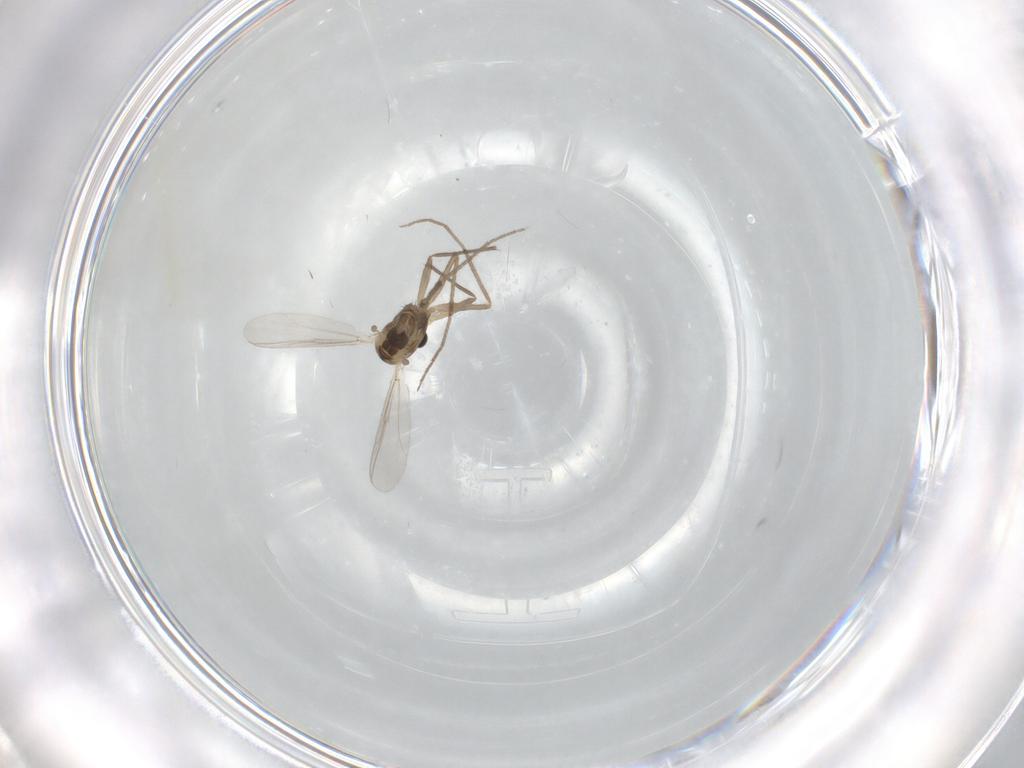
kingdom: Animalia
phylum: Arthropoda
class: Insecta
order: Diptera
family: Chironomidae
